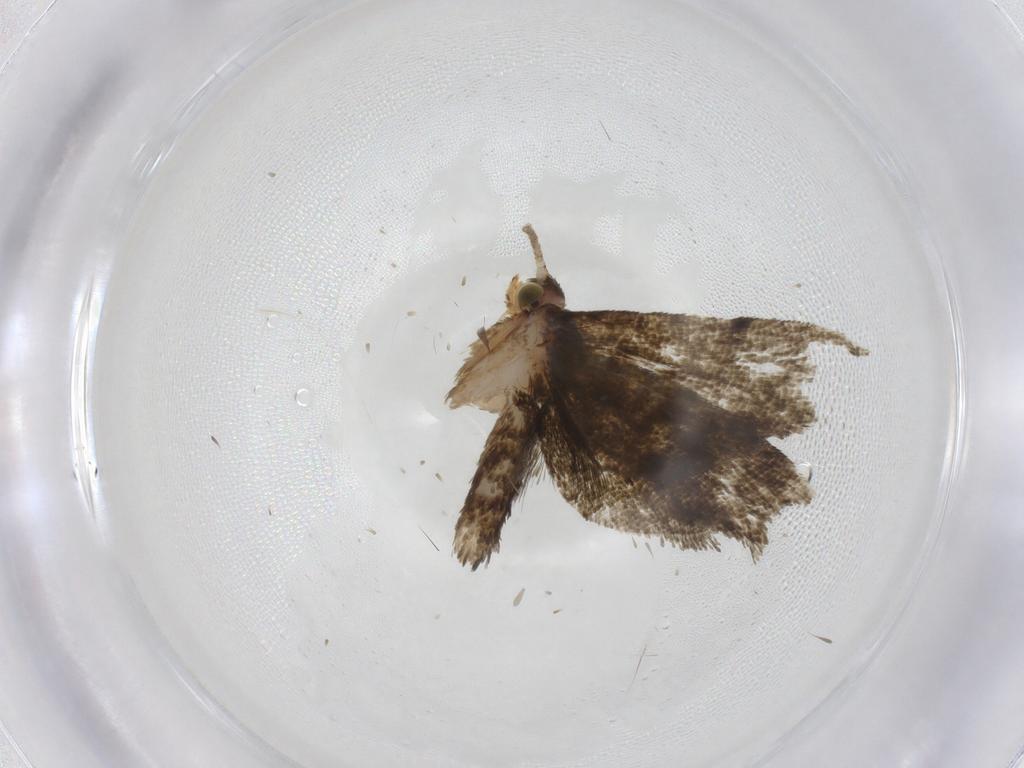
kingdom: Animalia
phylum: Arthropoda
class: Insecta
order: Lepidoptera
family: Tortricidae
